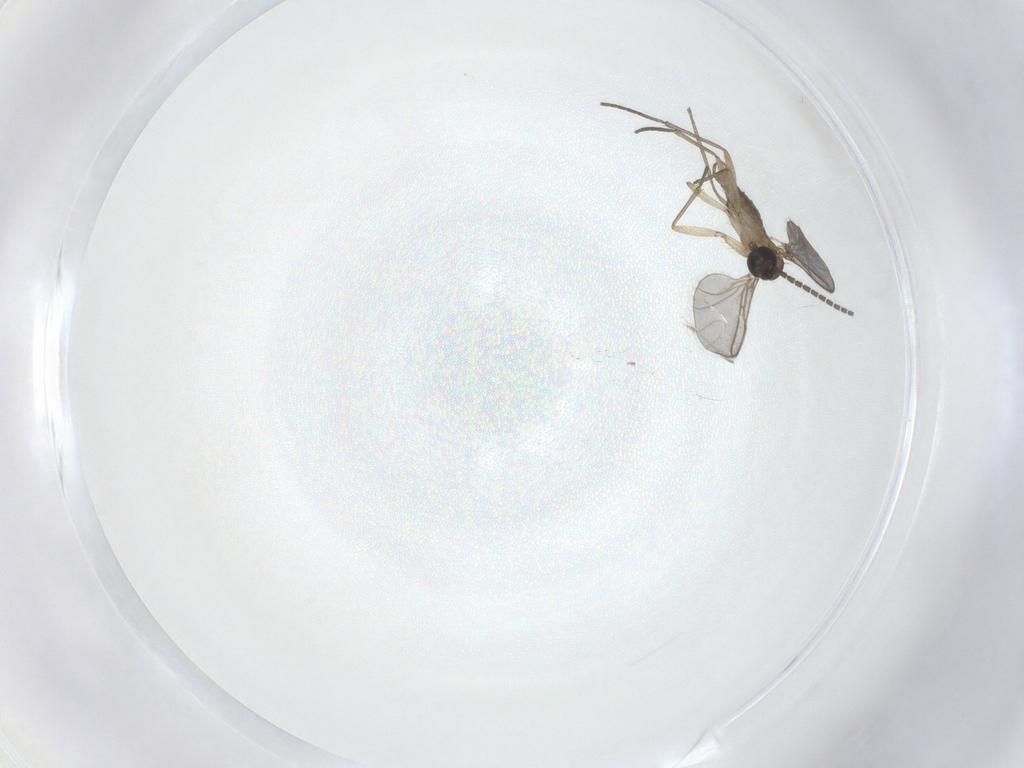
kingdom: Animalia
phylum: Arthropoda
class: Insecta
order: Diptera
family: Sciaridae
